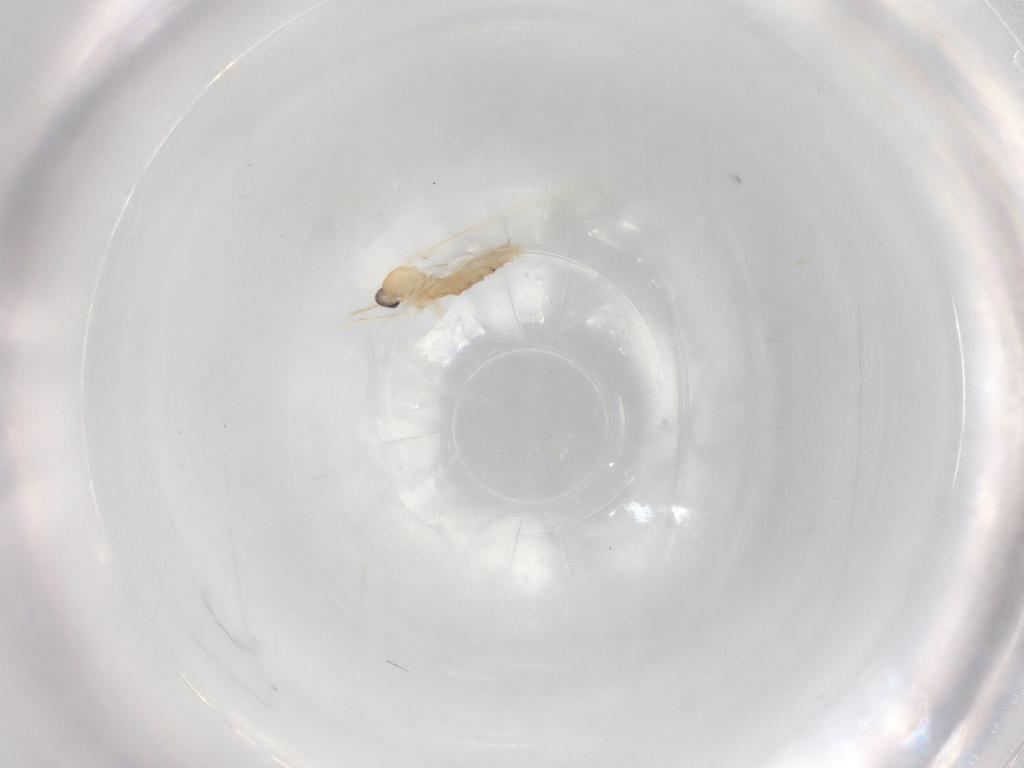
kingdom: Animalia
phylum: Arthropoda
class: Insecta
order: Diptera
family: Cecidomyiidae
